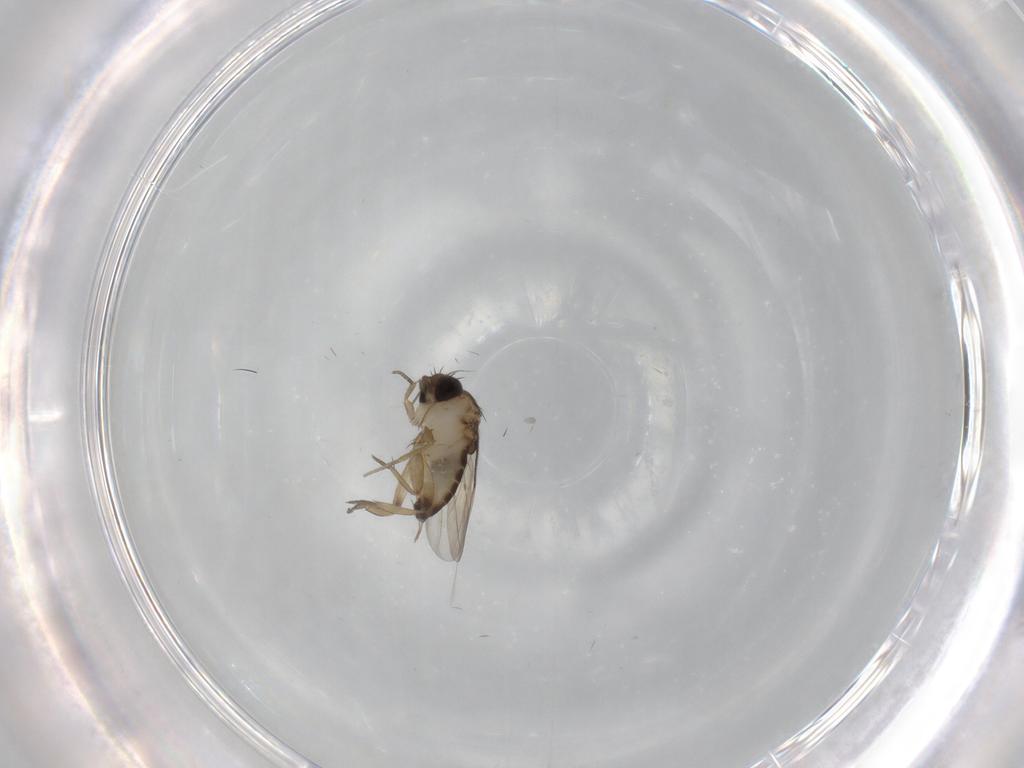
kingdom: Animalia
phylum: Arthropoda
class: Insecta
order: Diptera
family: Phoridae
